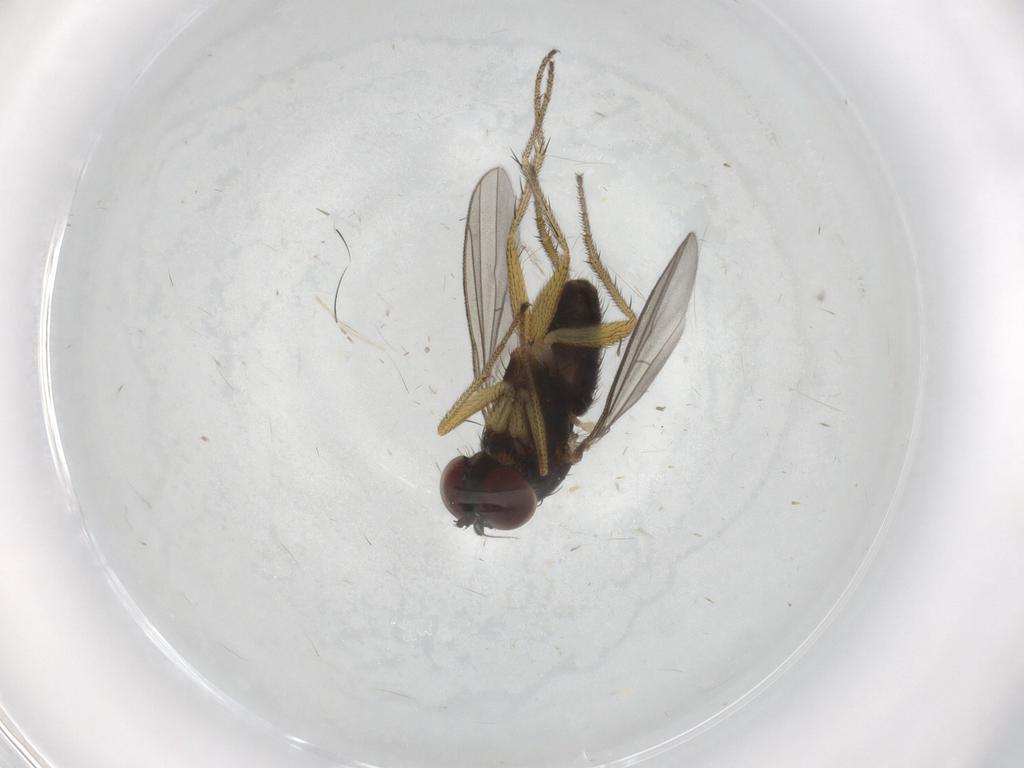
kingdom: Animalia
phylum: Arthropoda
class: Insecta
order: Diptera
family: Dolichopodidae
